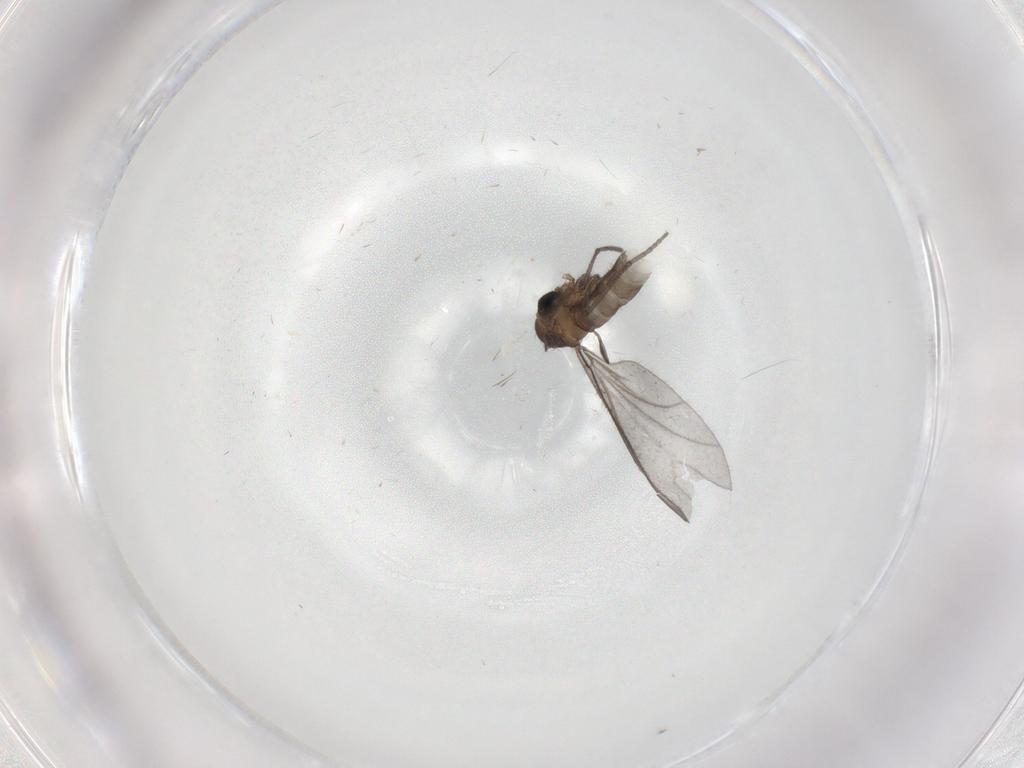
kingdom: Animalia
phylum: Arthropoda
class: Insecta
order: Diptera
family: Sciaridae
